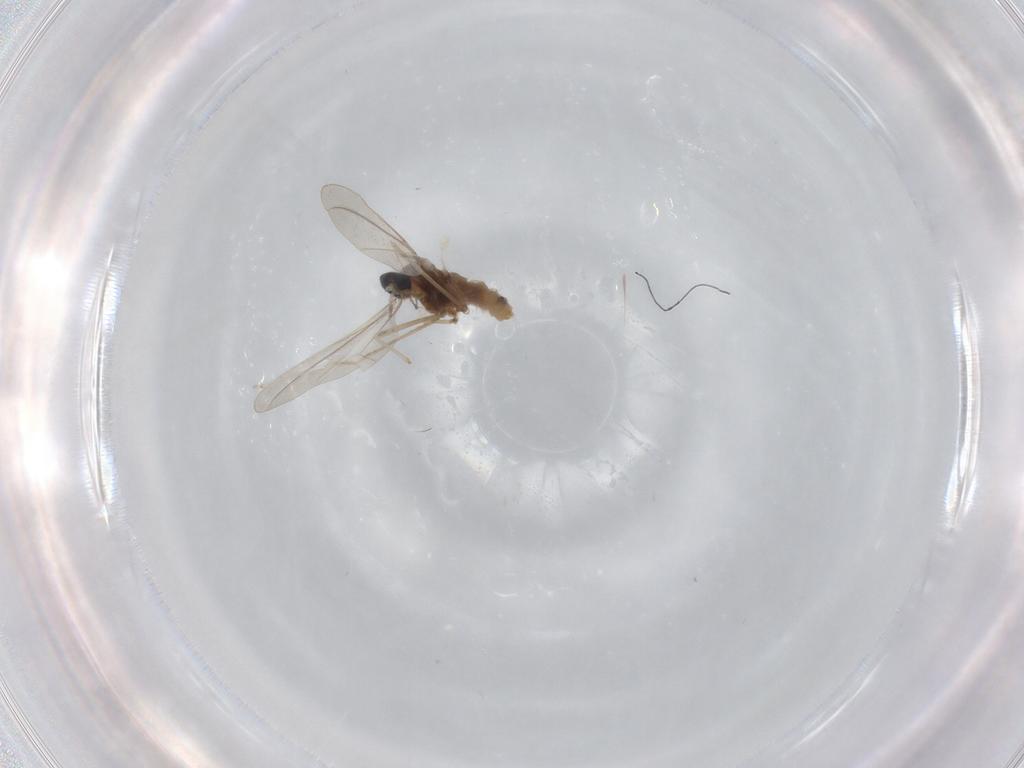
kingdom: Animalia
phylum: Arthropoda
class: Insecta
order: Diptera
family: Cecidomyiidae
